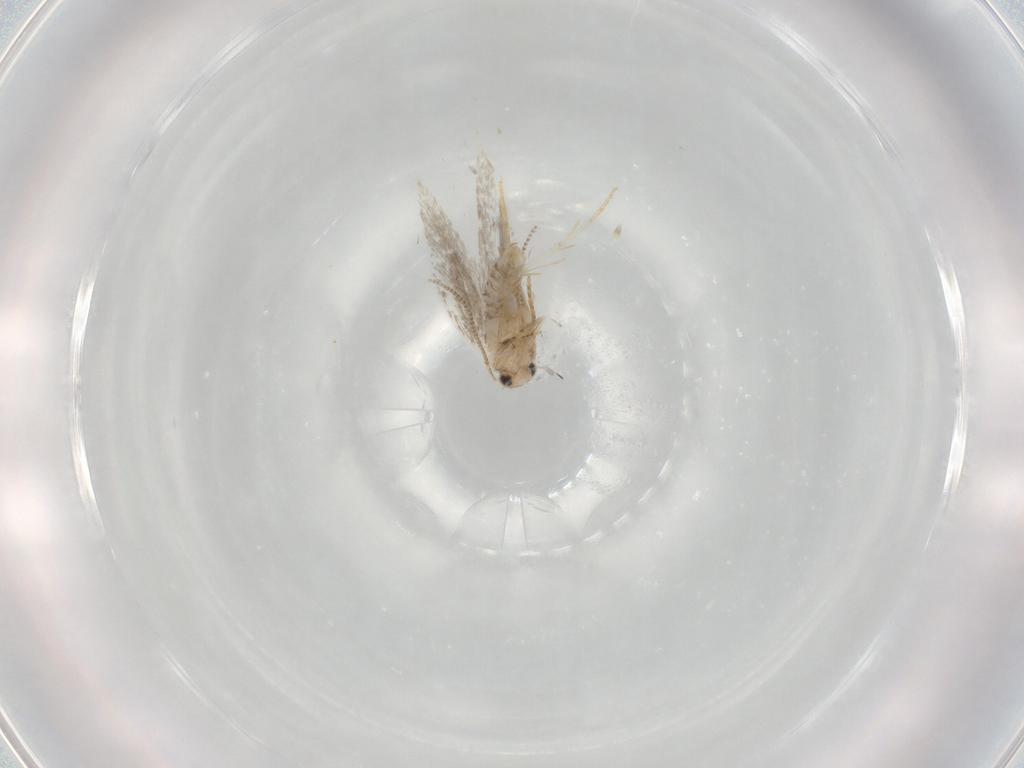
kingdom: Animalia
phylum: Arthropoda
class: Insecta
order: Lepidoptera
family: Tineidae
